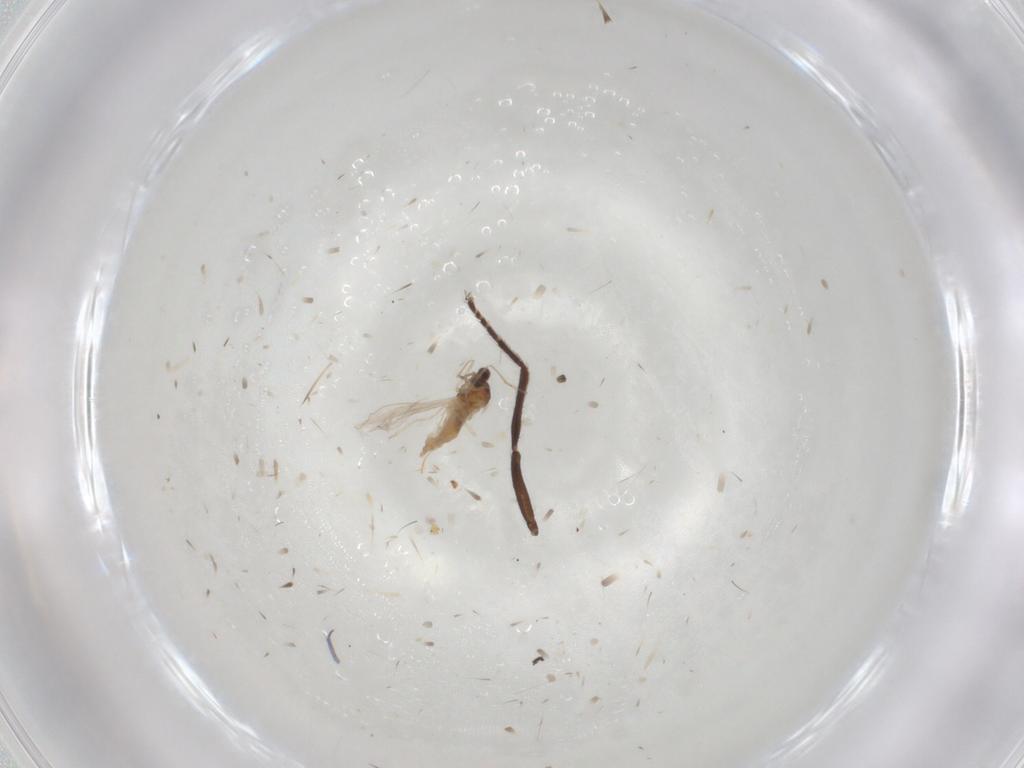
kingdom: Animalia
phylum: Arthropoda
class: Insecta
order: Diptera
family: Cecidomyiidae
